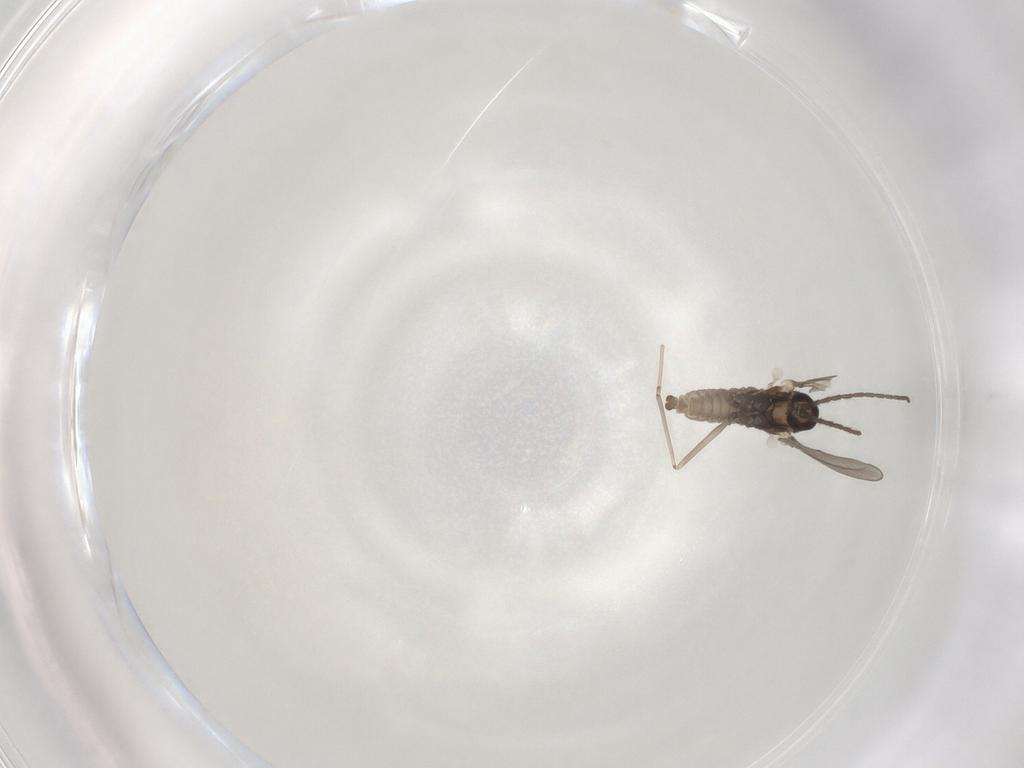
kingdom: Animalia
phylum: Arthropoda
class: Insecta
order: Diptera
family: Cecidomyiidae
